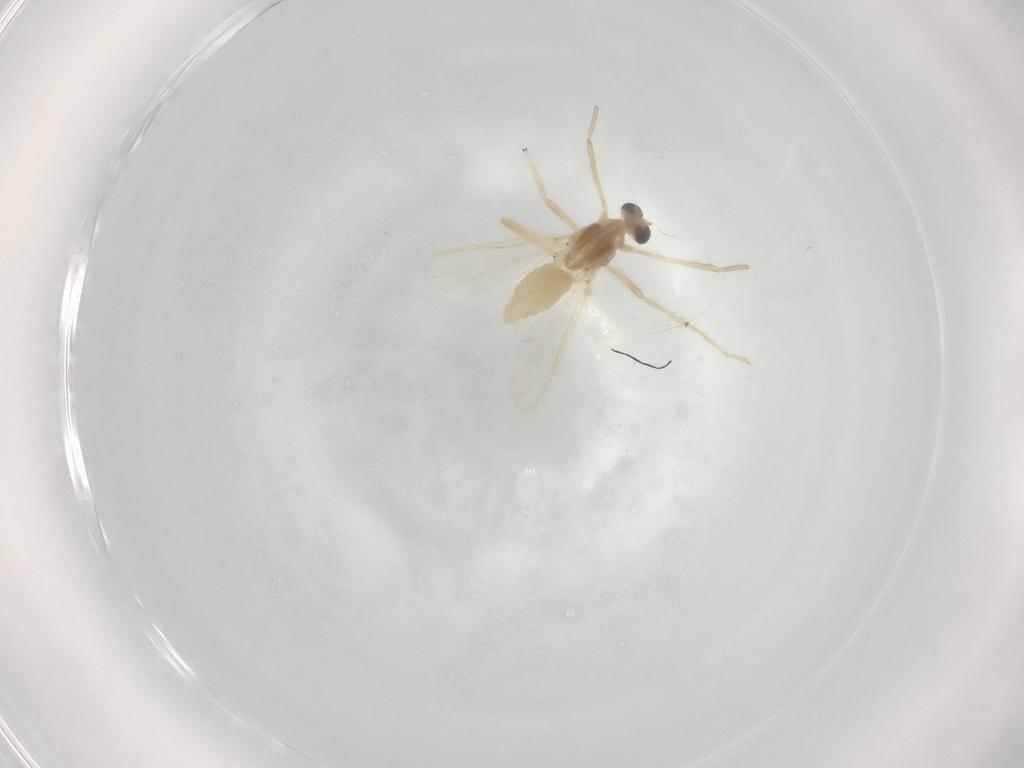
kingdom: Animalia
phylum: Arthropoda
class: Insecta
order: Diptera
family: Chironomidae
